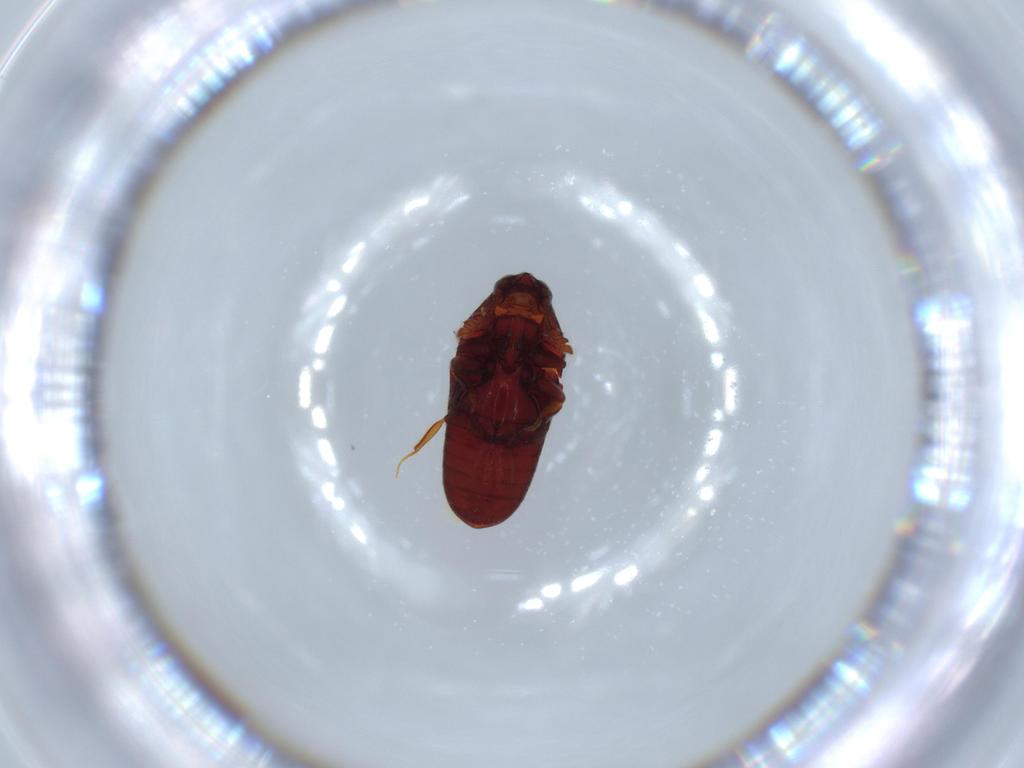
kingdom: Animalia
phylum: Arthropoda
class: Insecta
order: Coleoptera
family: Throscidae
